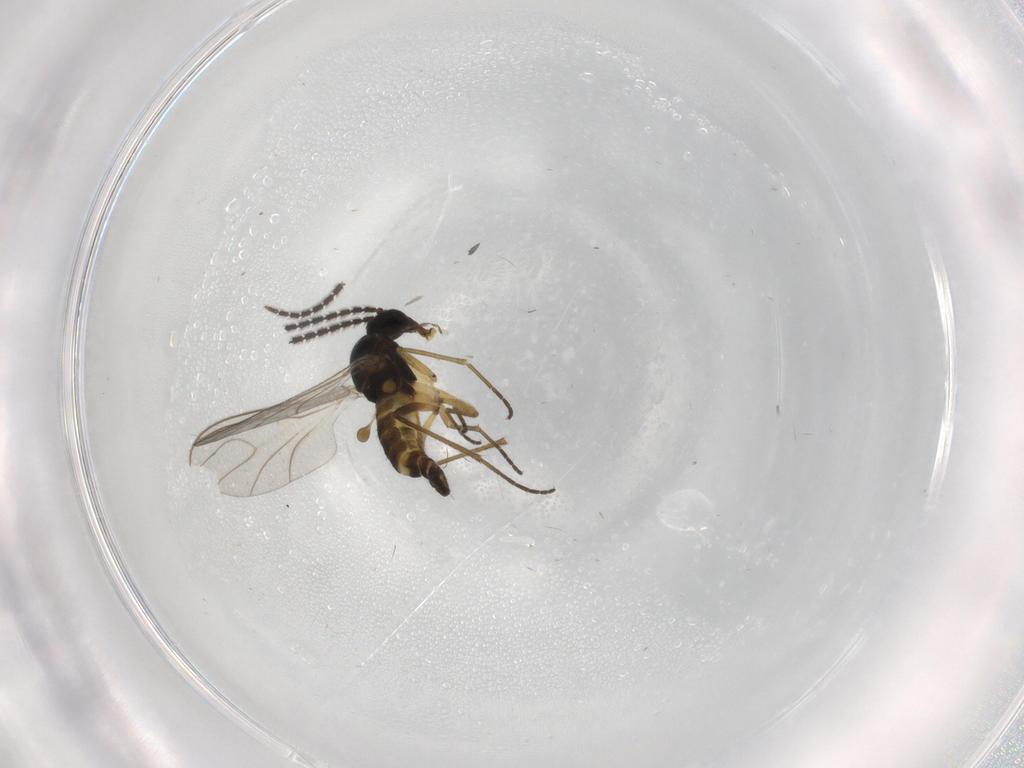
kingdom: Animalia
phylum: Arthropoda
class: Insecta
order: Diptera
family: Sciaridae
